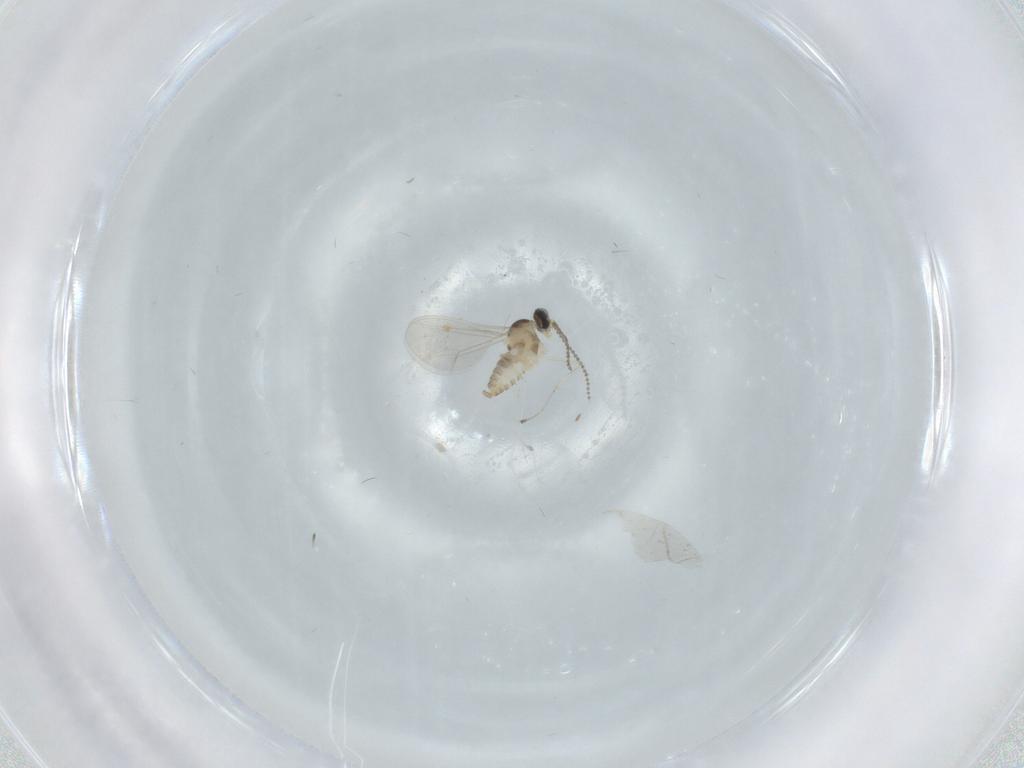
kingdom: Animalia
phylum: Arthropoda
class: Insecta
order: Diptera
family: Cecidomyiidae
